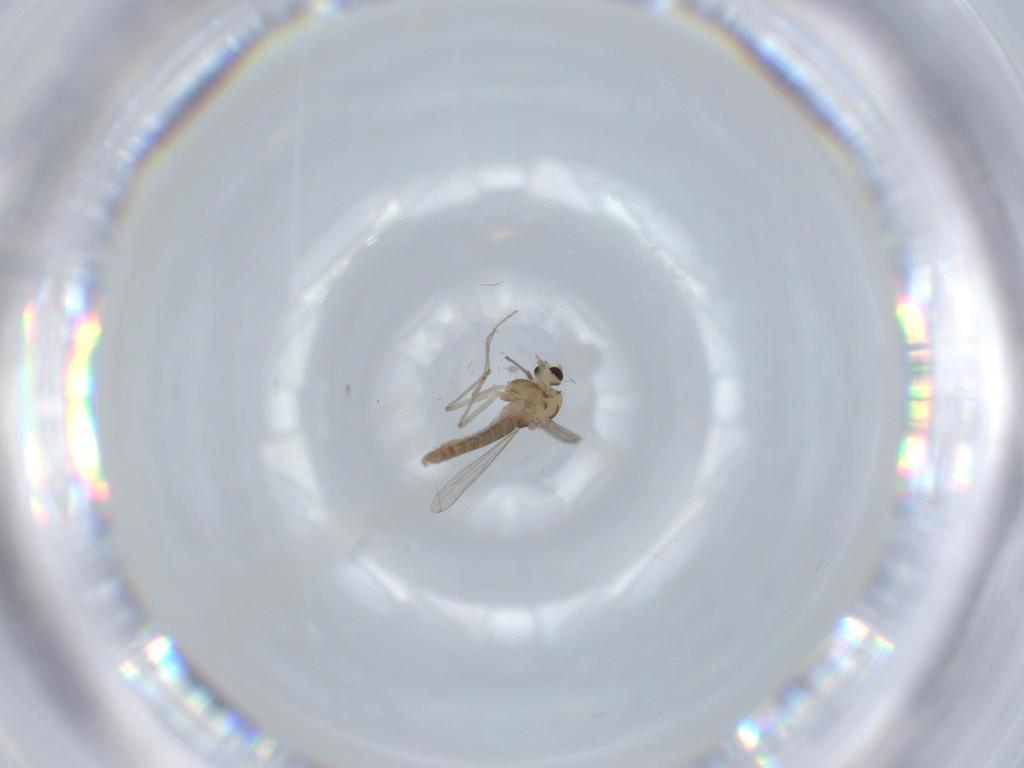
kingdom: Animalia
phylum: Arthropoda
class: Insecta
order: Diptera
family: Chironomidae
